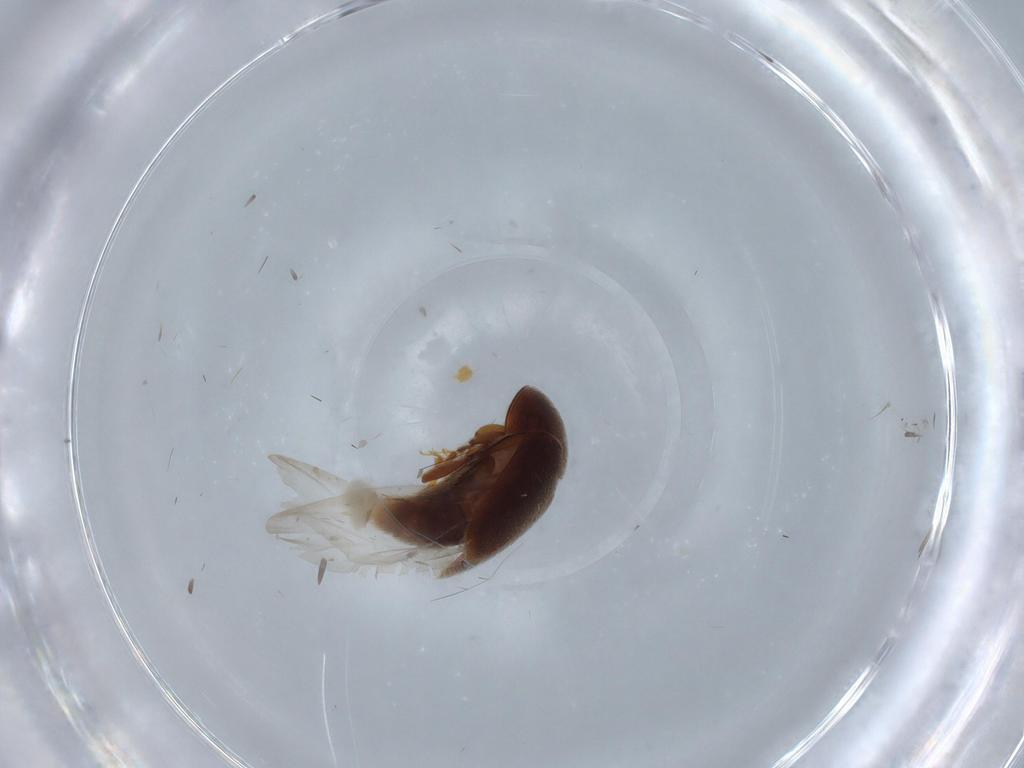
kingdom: Animalia
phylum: Arthropoda
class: Insecta
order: Coleoptera
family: Corylophidae
